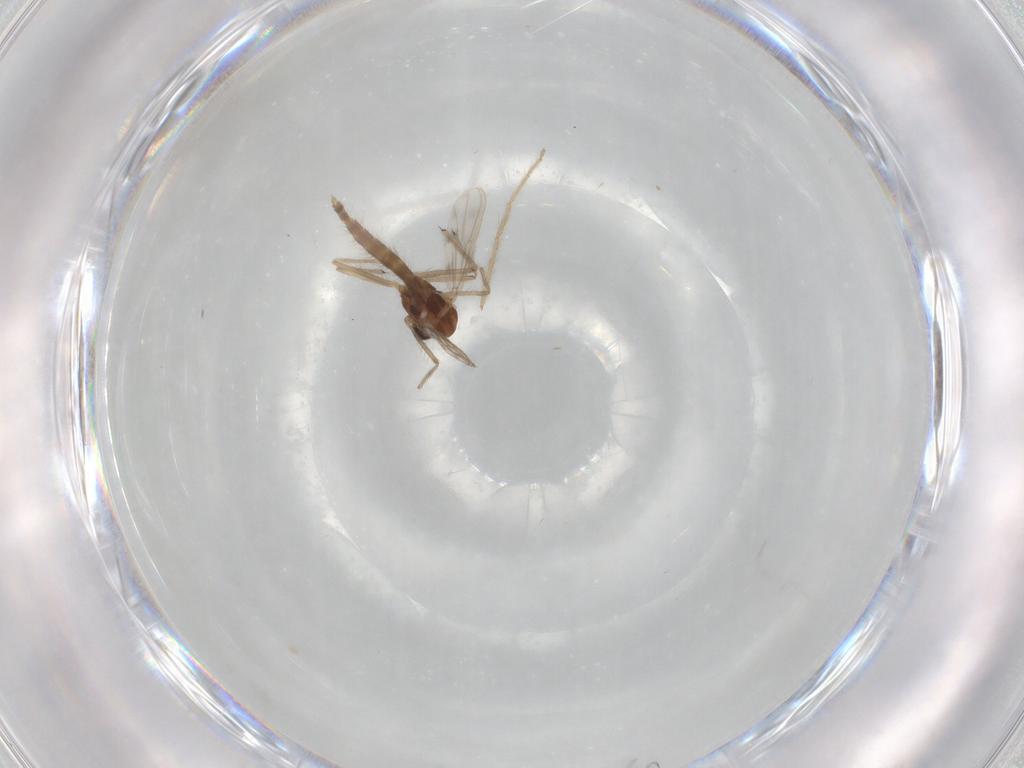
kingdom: Animalia
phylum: Arthropoda
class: Insecta
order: Diptera
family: Chironomidae
